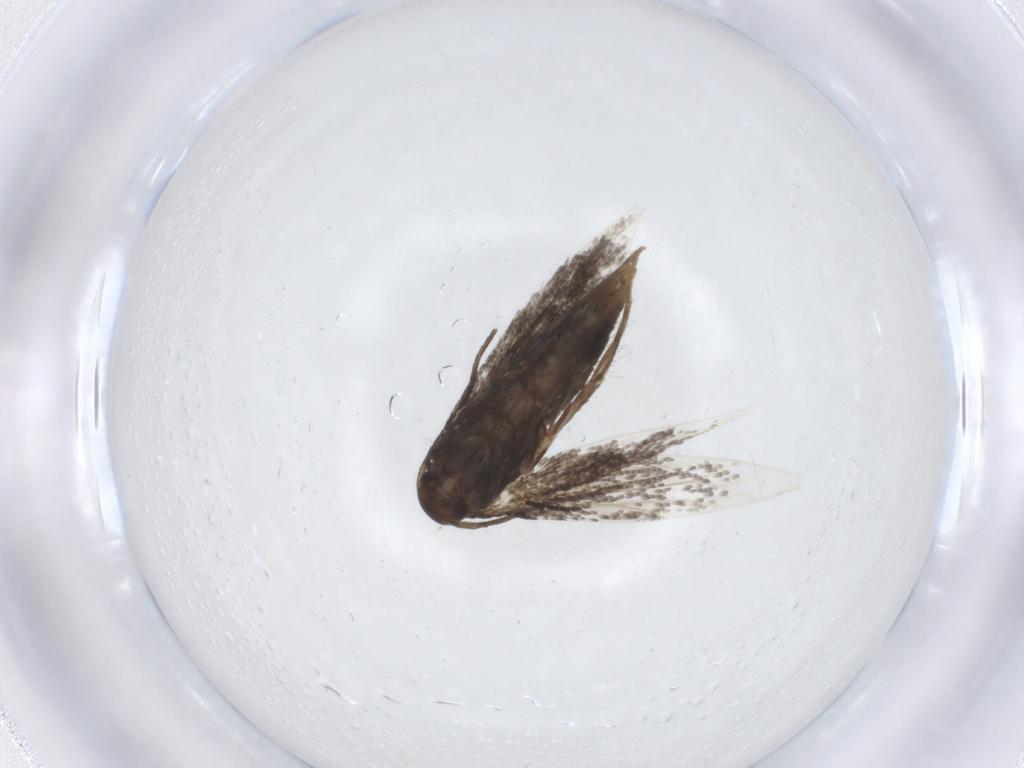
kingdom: Animalia
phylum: Arthropoda
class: Insecta
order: Lepidoptera
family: Elachistidae
